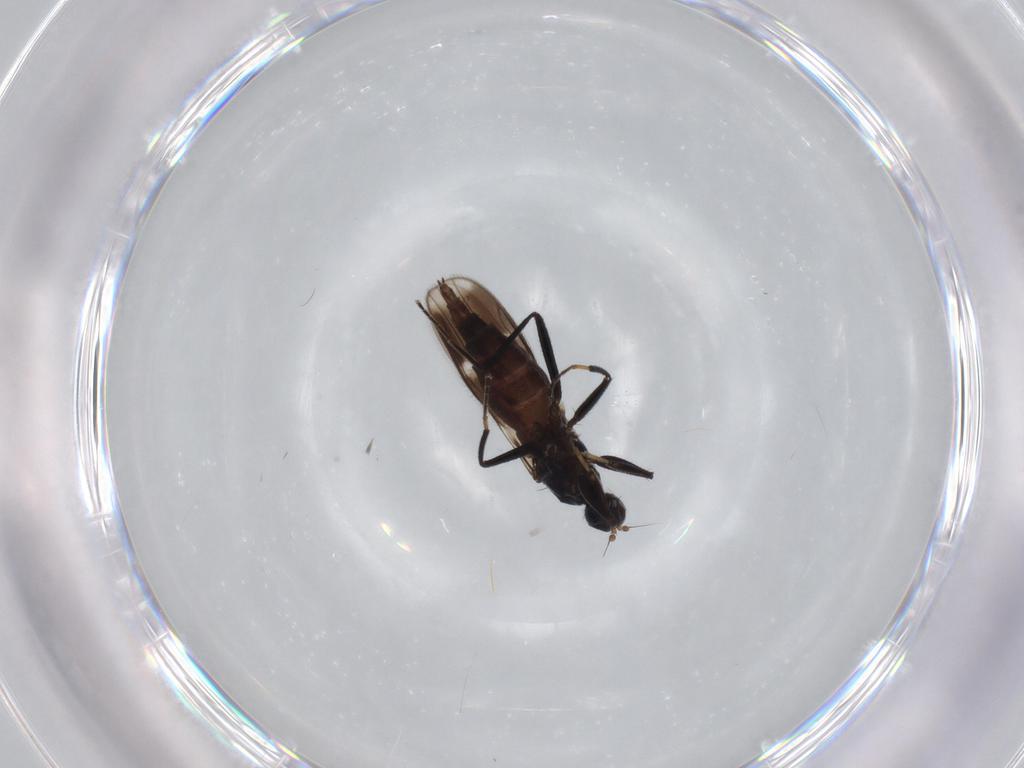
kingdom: Animalia
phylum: Arthropoda
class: Insecta
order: Diptera
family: Hybotidae
